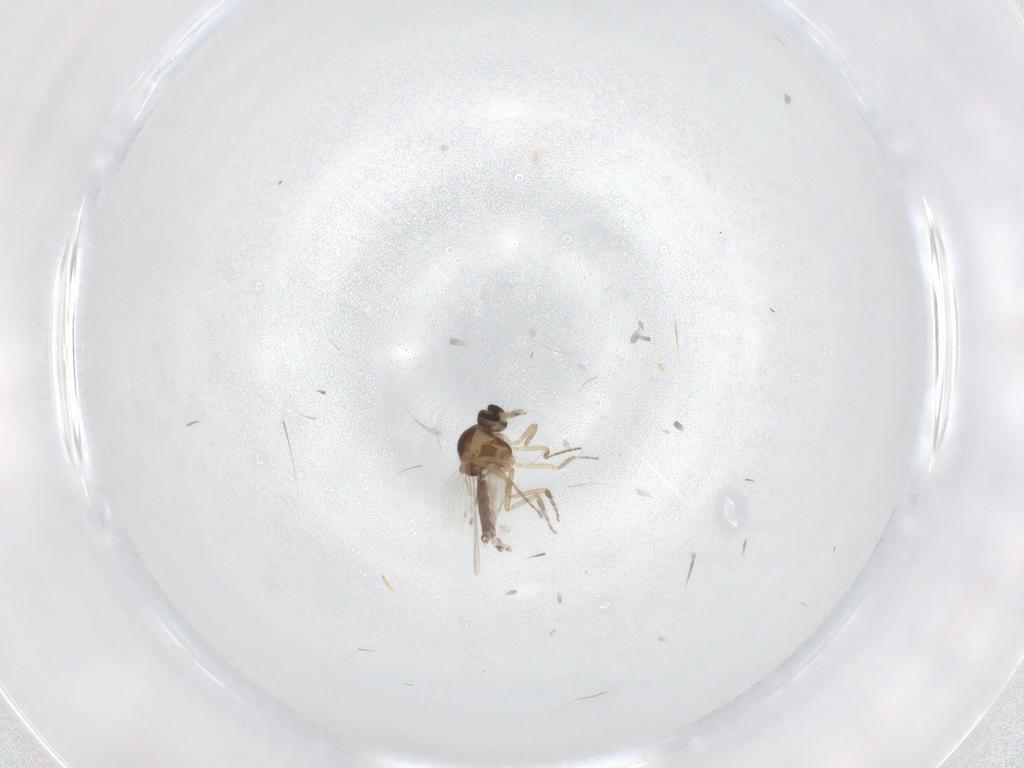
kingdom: Animalia
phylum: Arthropoda
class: Insecta
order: Diptera
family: Ceratopogonidae
